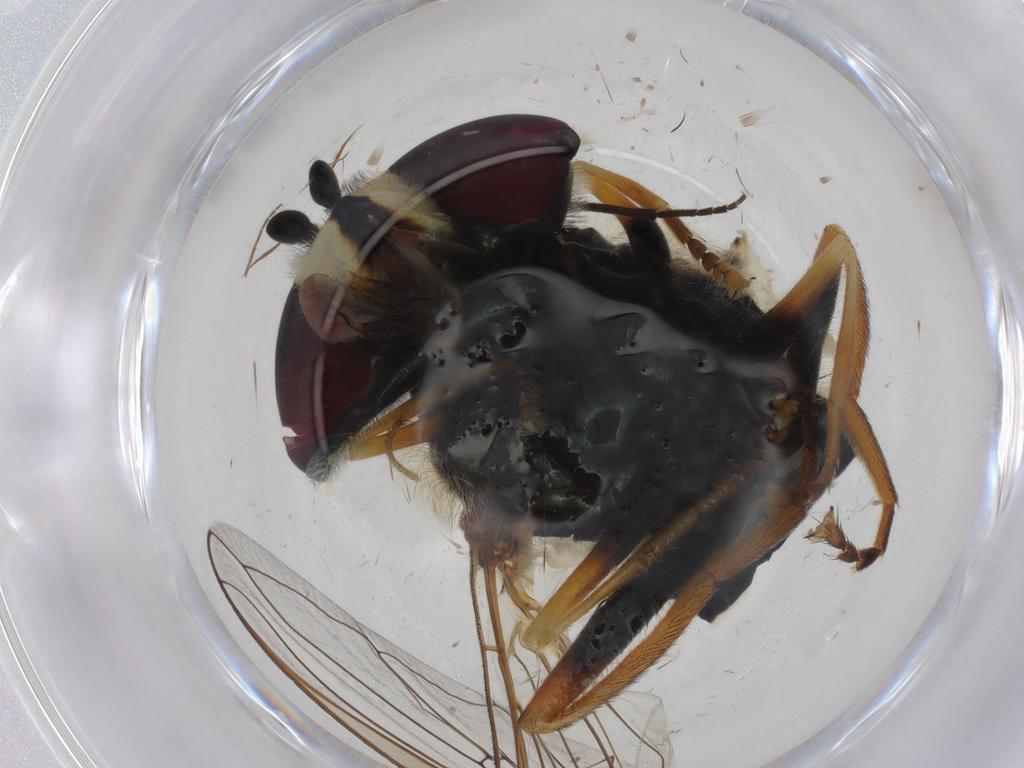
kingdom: Animalia
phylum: Arthropoda
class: Insecta
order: Diptera
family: Syrphidae
